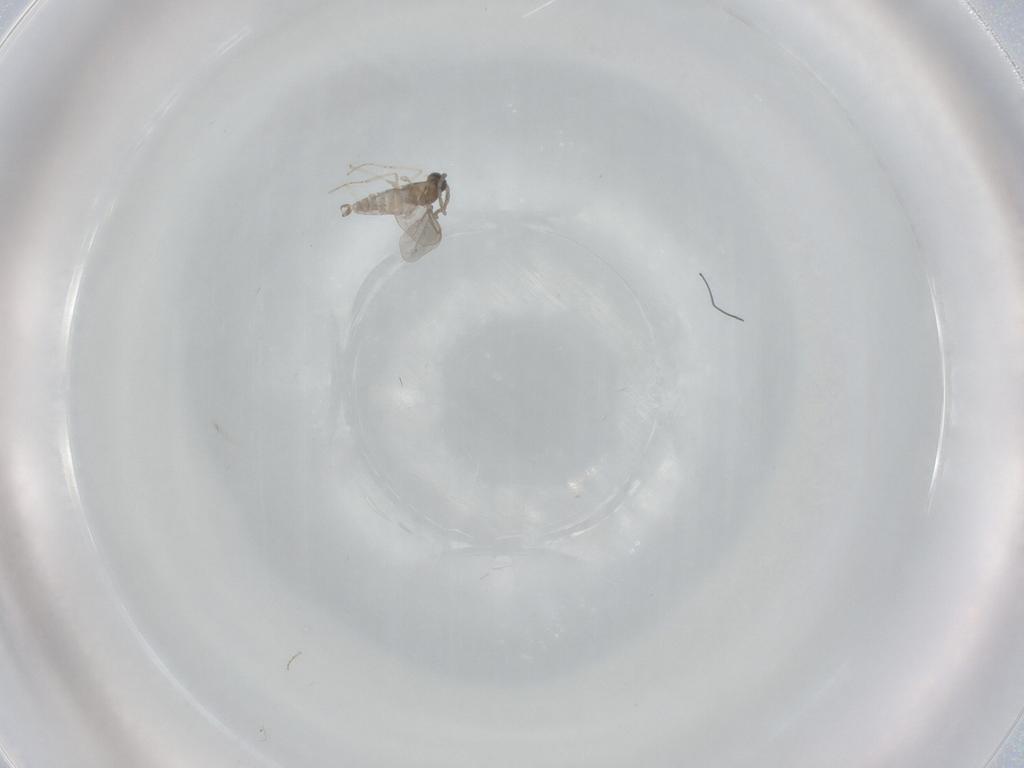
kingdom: Animalia
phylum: Arthropoda
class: Insecta
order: Diptera
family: Cecidomyiidae
